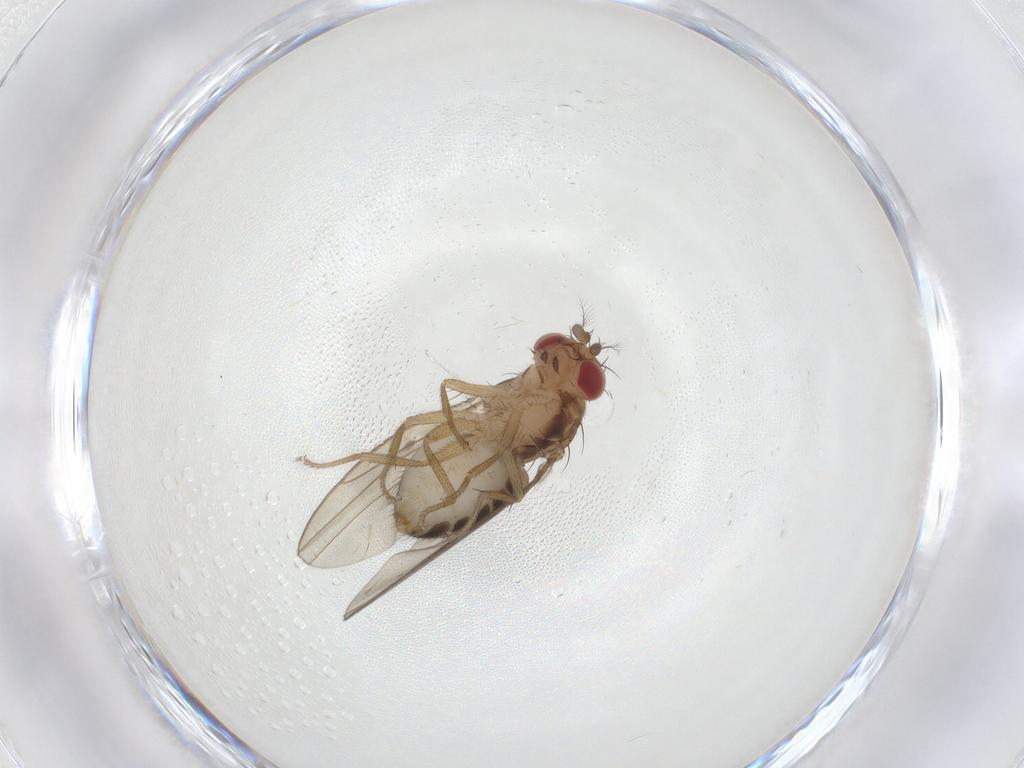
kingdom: Animalia
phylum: Arthropoda
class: Insecta
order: Diptera
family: Drosophilidae
